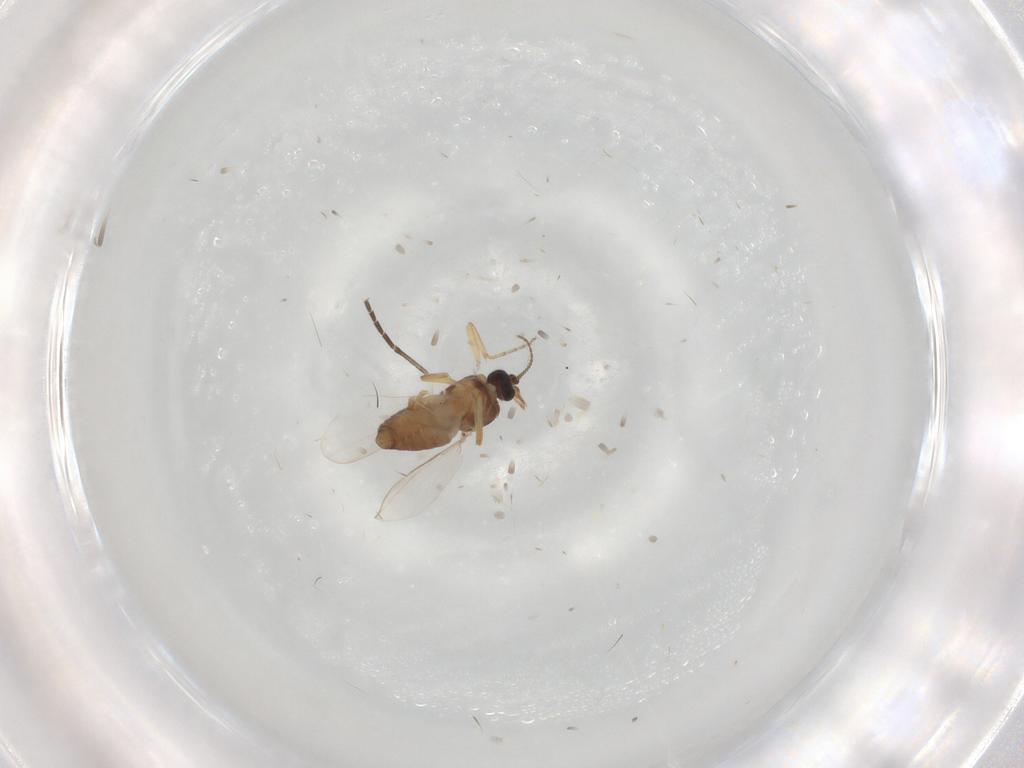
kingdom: Animalia
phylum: Arthropoda
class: Insecta
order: Diptera
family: Ceratopogonidae
